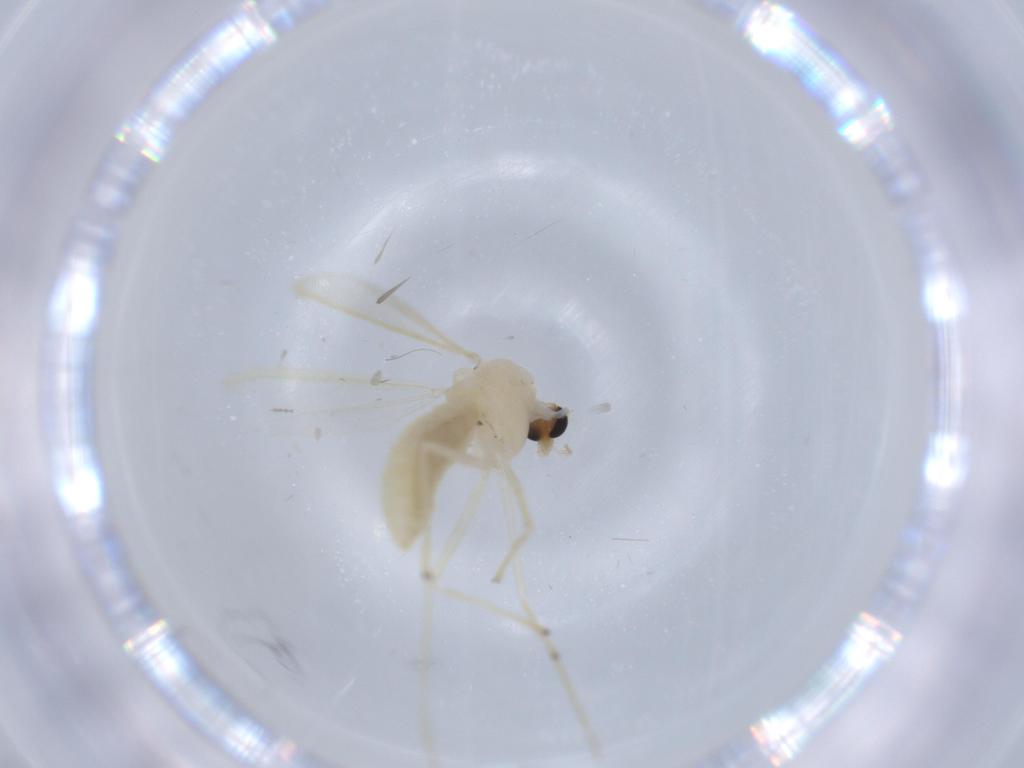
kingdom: Animalia
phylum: Arthropoda
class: Insecta
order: Diptera
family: Chironomidae
